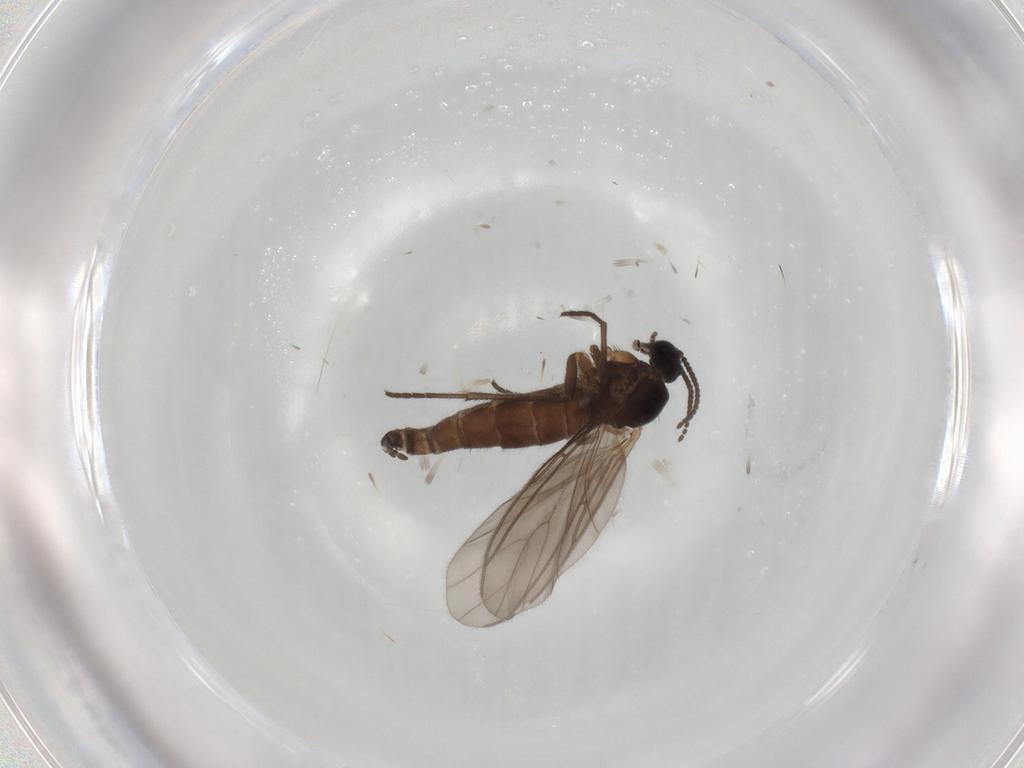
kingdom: Animalia
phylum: Arthropoda
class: Insecta
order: Diptera
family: Sciaridae
